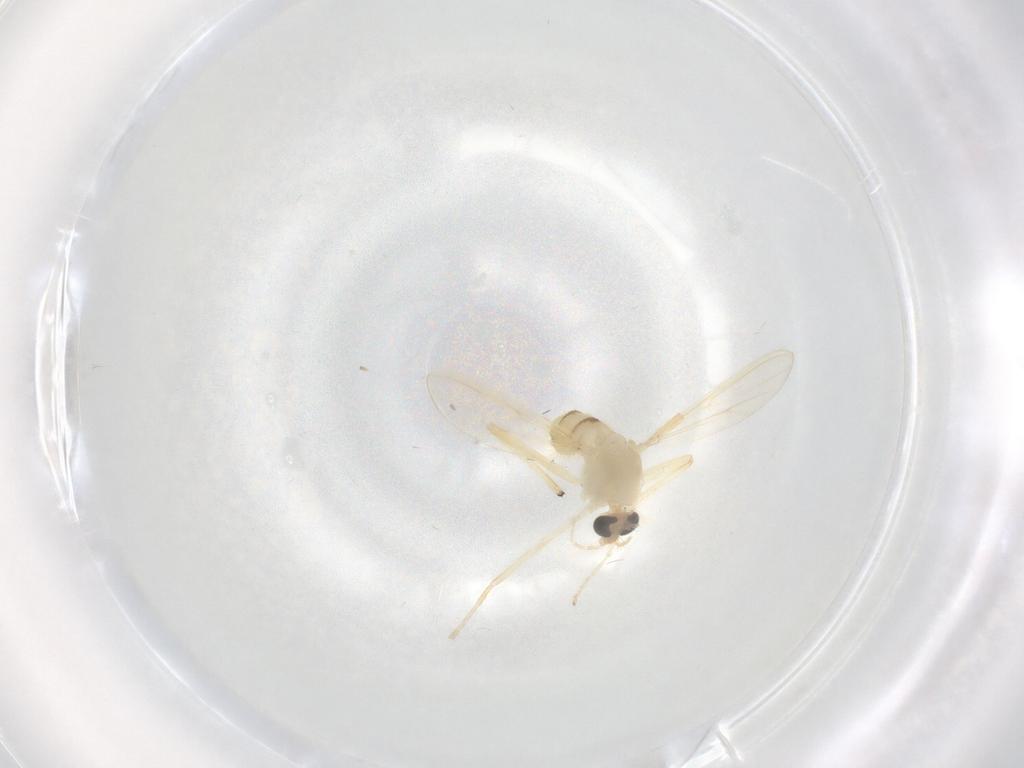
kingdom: Animalia
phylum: Arthropoda
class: Insecta
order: Diptera
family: Chironomidae
